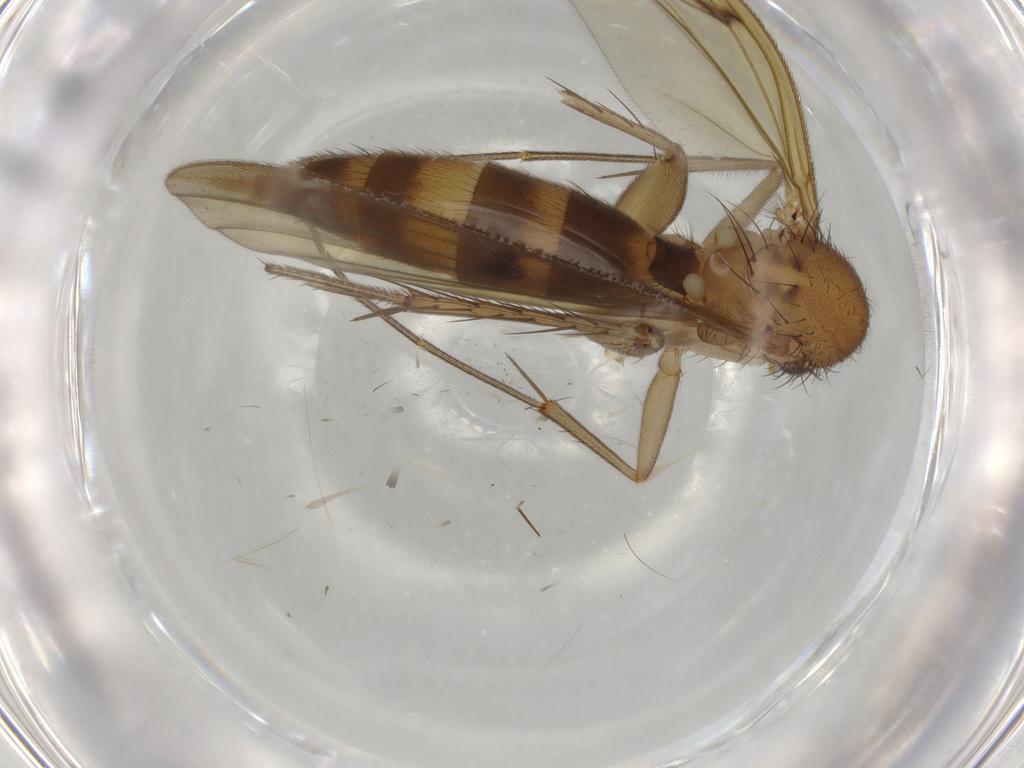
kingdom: Animalia
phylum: Arthropoda
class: Insecta
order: Diptera
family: Mycetophilidae
